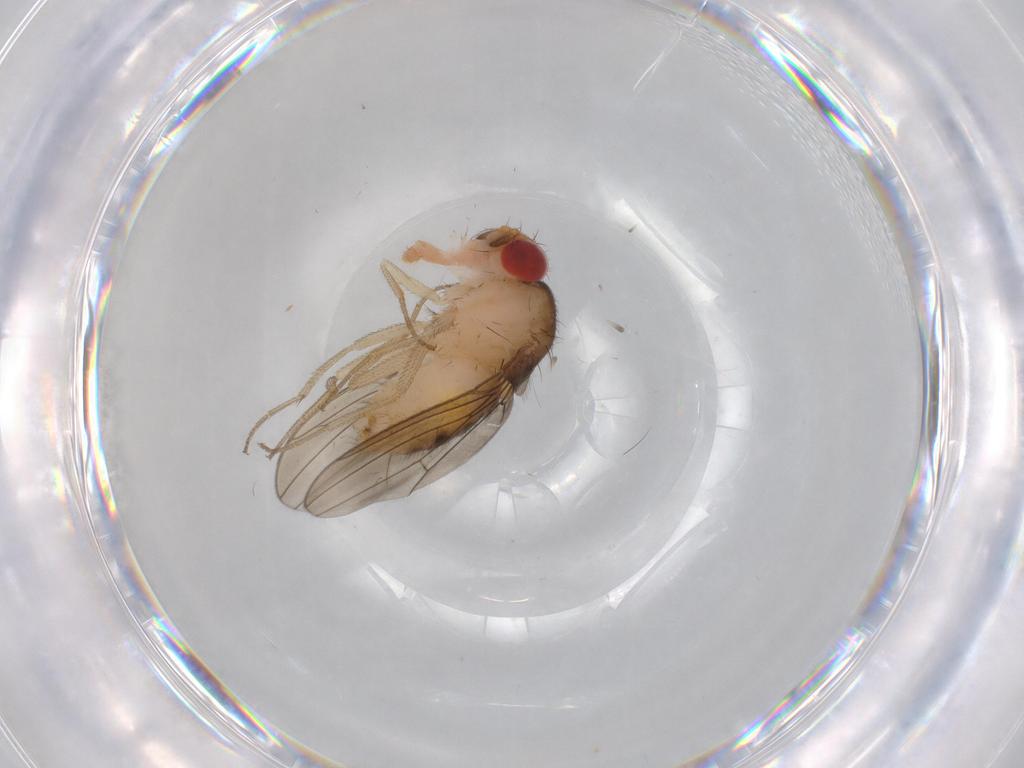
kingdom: Animalia
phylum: Arthropoda
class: Insecta
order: Diptera
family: Drosophilidae
